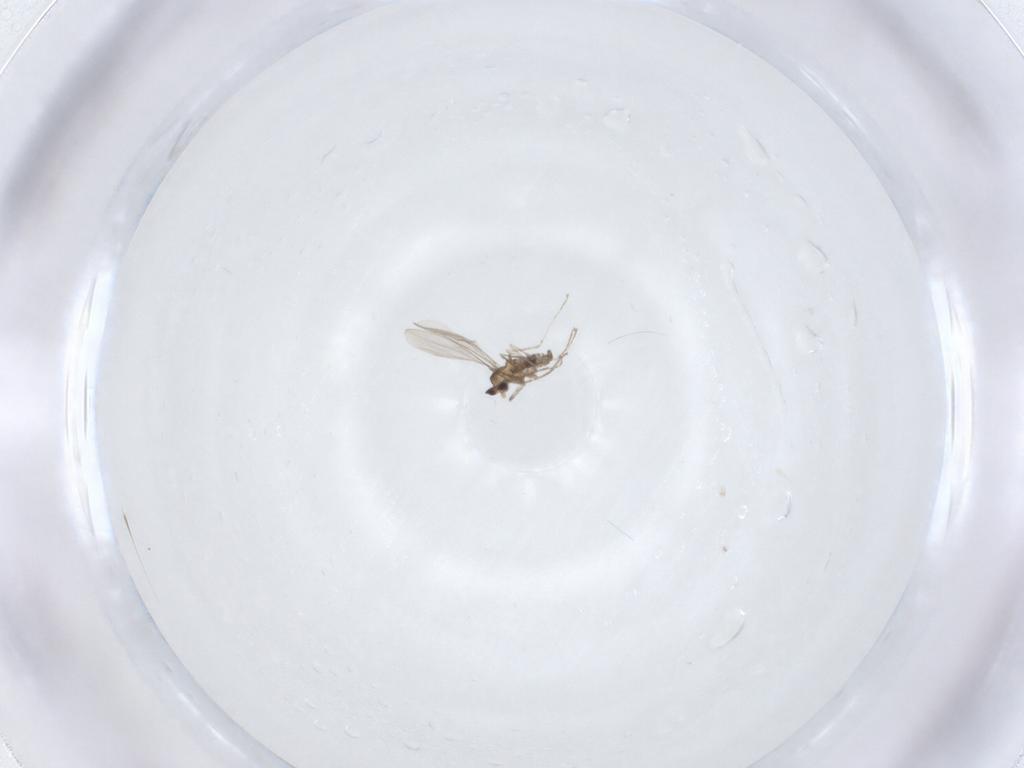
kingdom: Animalia
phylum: Arthropoda
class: Insecta
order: Diptera
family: Cecidomyiidae
